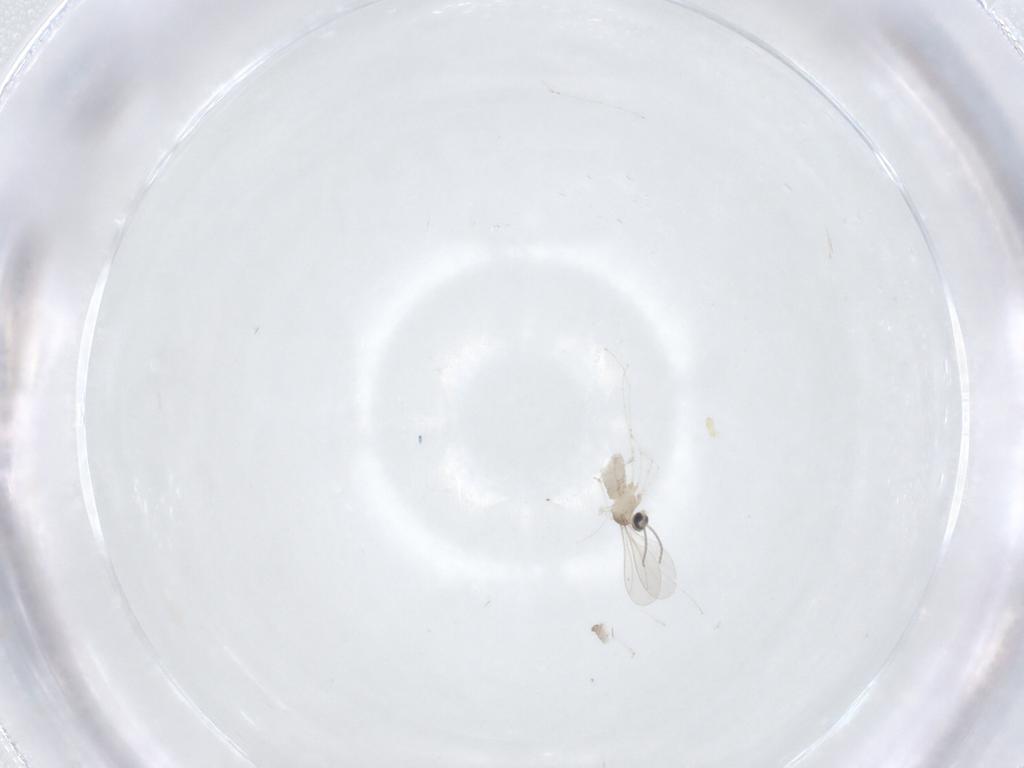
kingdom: Animalia
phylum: Arthropoda
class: Insecta
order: Diptera
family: Cecidomyiidae
